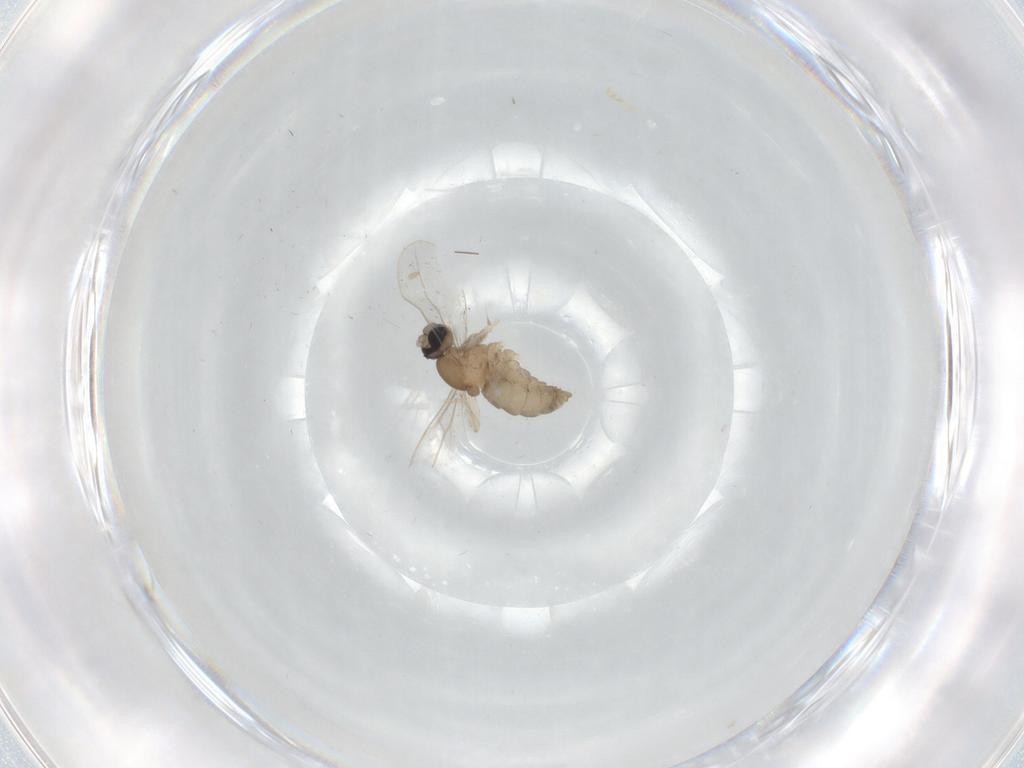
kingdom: Animalia
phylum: Arthropoda
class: Insecta
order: Diptera
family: Cecidomyiidae
